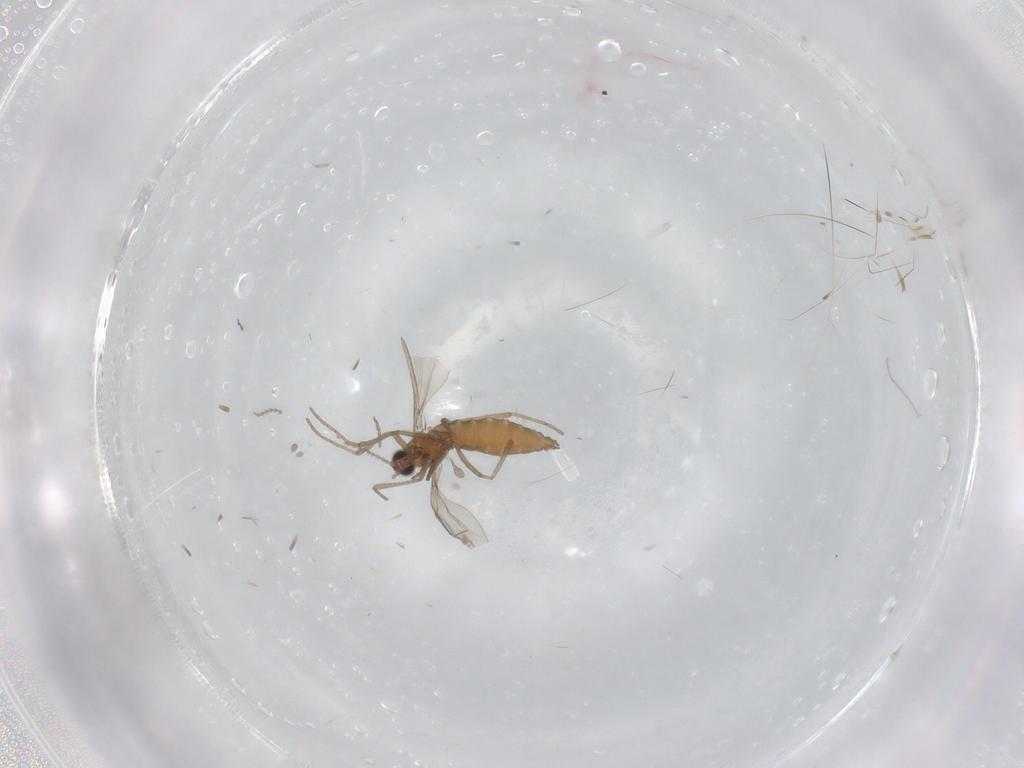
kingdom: Animalia
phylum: Arthropoda
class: Insecta
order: Diptera
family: Cecidomyiidae
